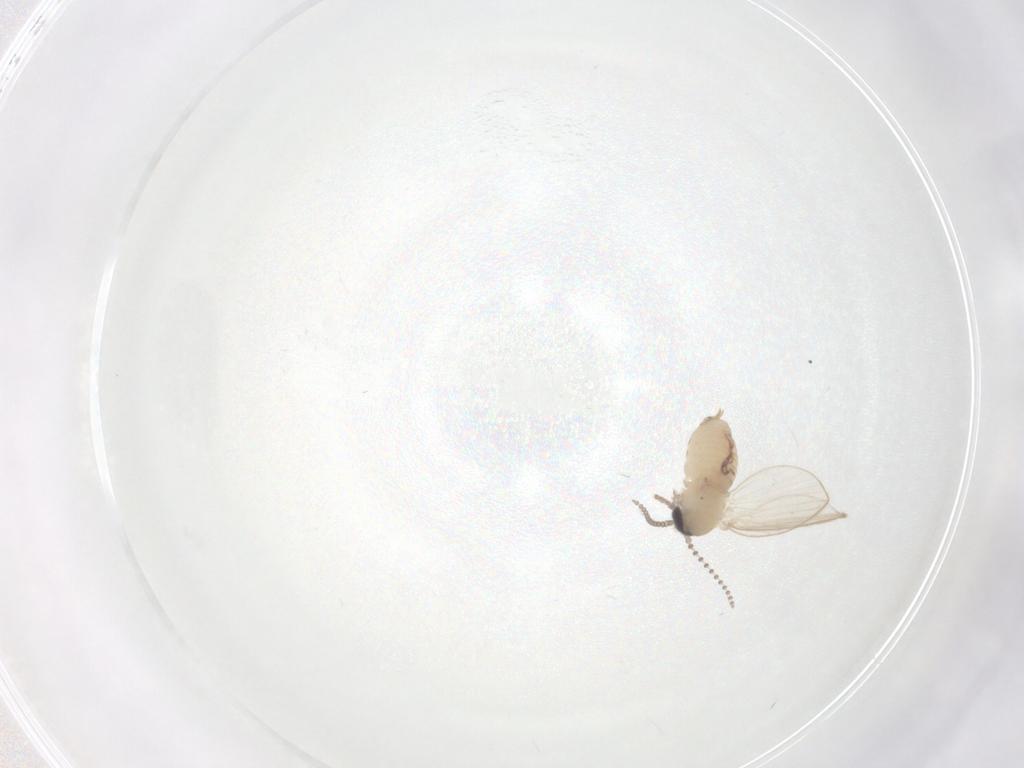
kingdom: Animalia
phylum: Arthropoda
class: Insecta
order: Diptera
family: Psychodidae
